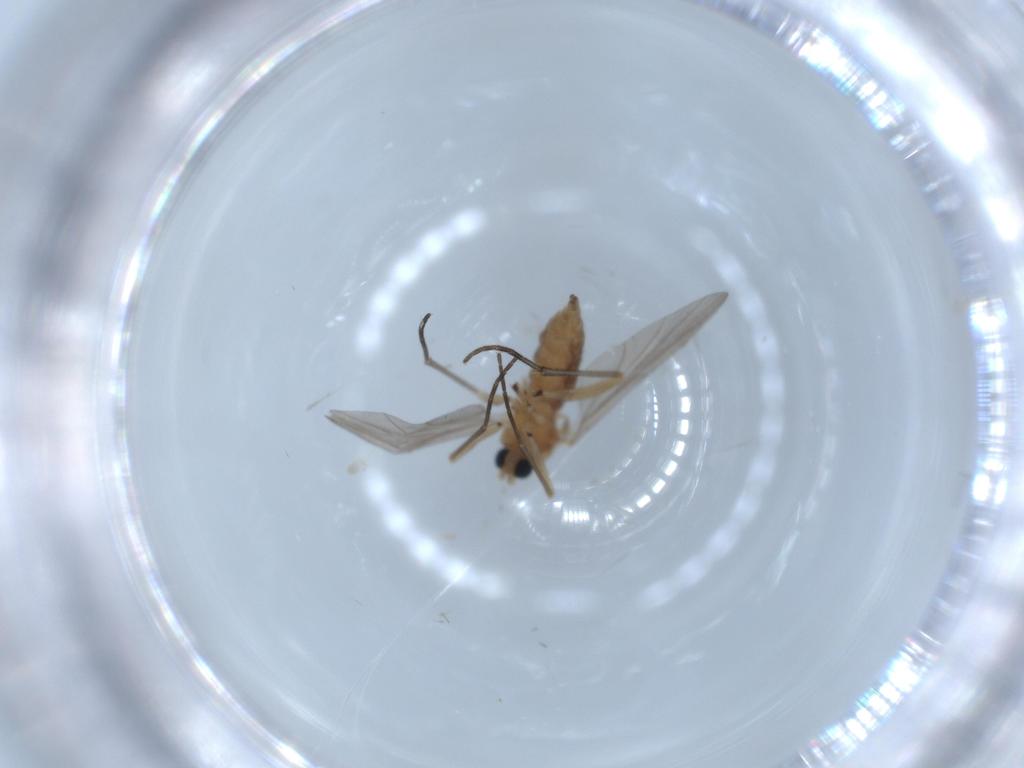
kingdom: Animalia
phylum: Arthropoda
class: Insecta
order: Diptera
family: Sciaridae
